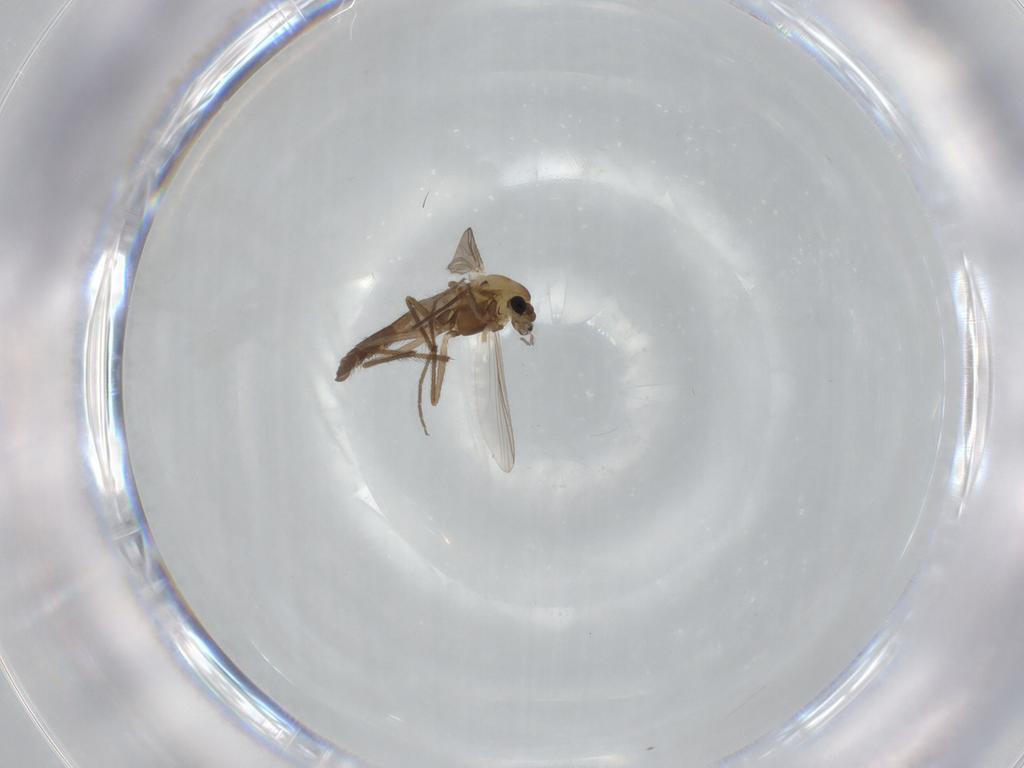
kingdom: Animalia
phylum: Arthropoda
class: Insecta
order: Diptera
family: Chironomidae
